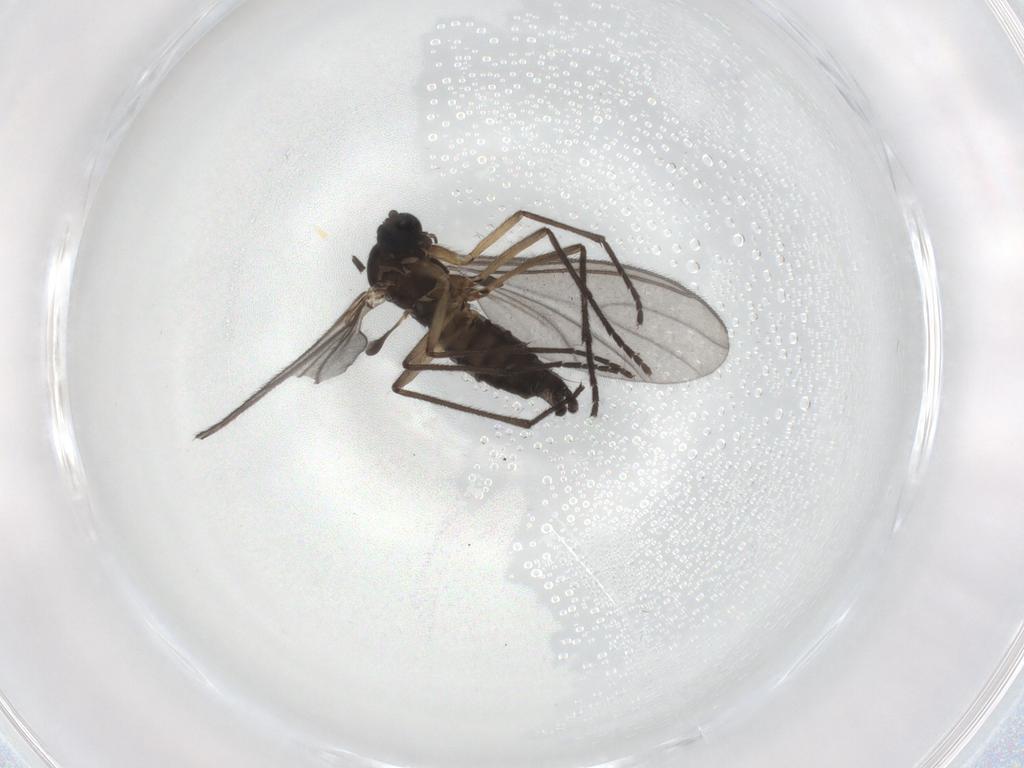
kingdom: Animalia
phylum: Arthropoda
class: Insecta
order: Diptera
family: Sciaridae
